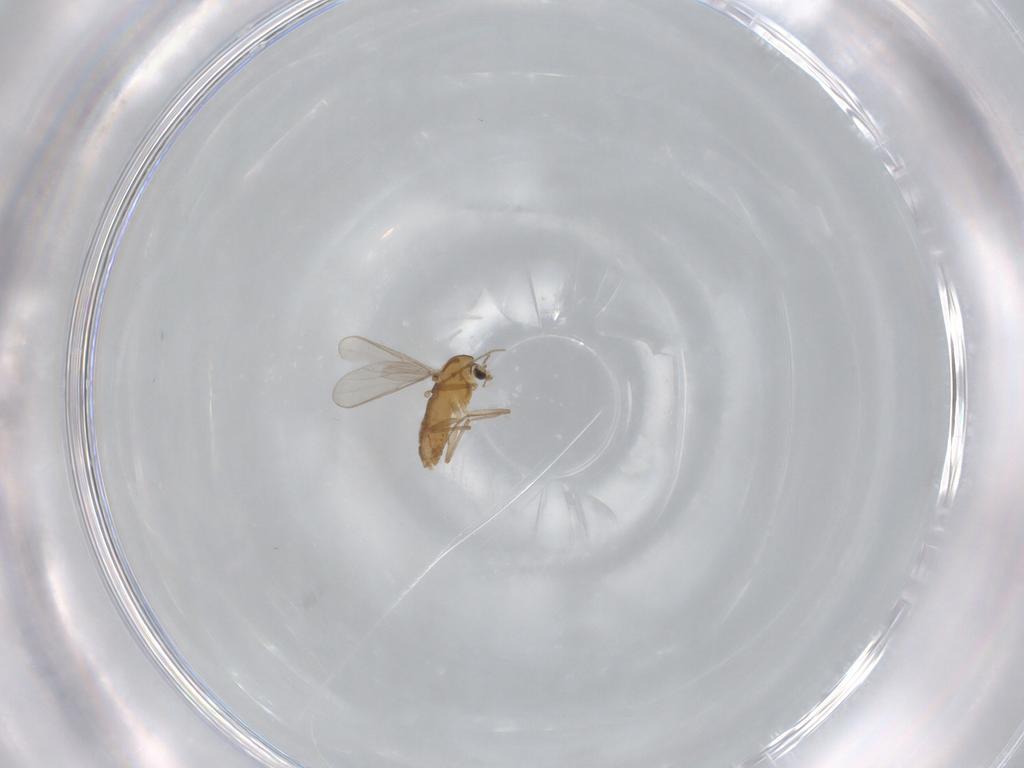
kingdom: Animalia
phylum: Arthropoda
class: Insecta
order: Diptera
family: Chironomidae
